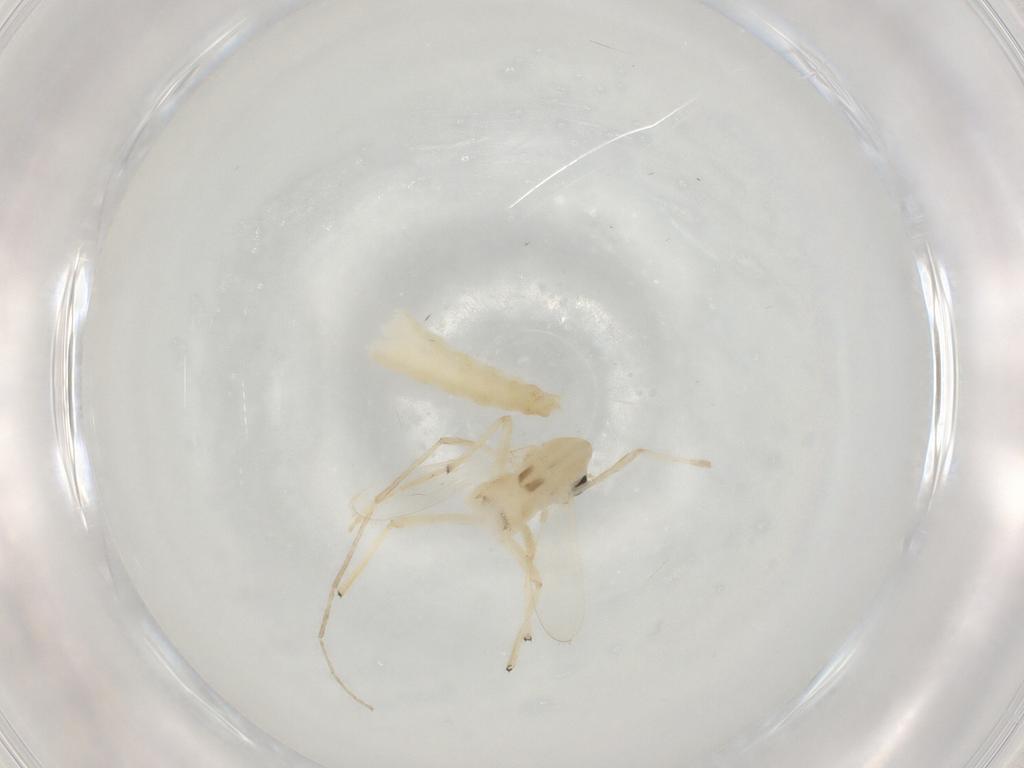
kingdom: Animalia
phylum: Arthropoda
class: Insecta
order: Diptera
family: Chironomidae
